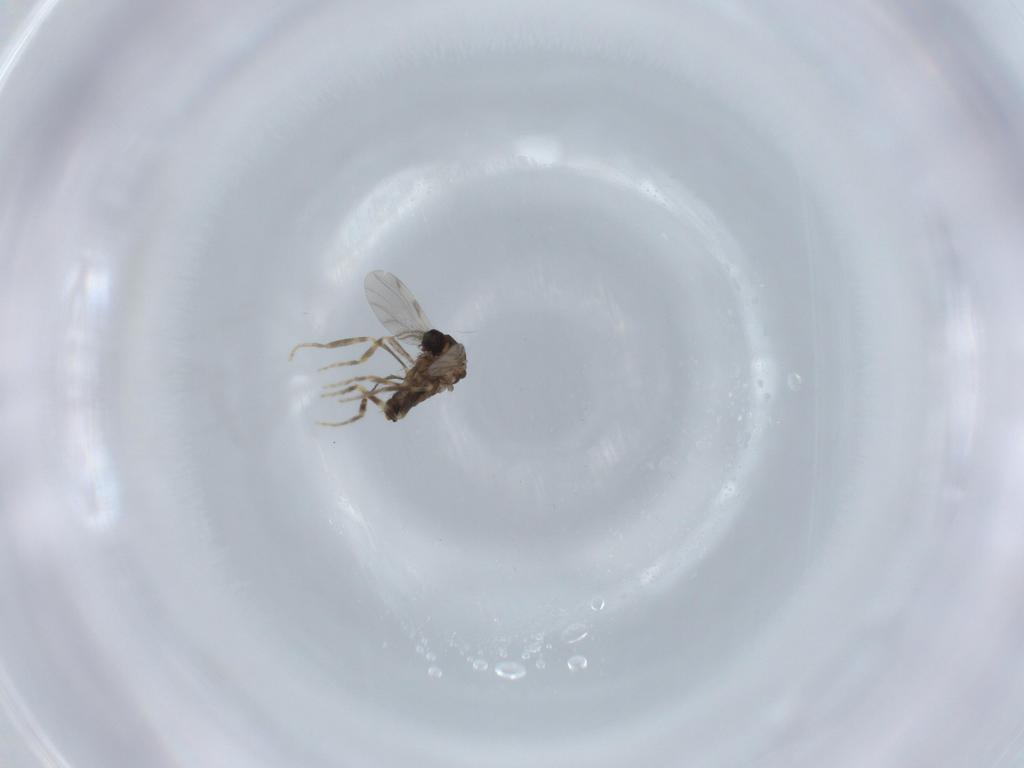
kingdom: Animalia
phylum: Arthropoda
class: Insecta
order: Diptera
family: Ceratopogonidae
